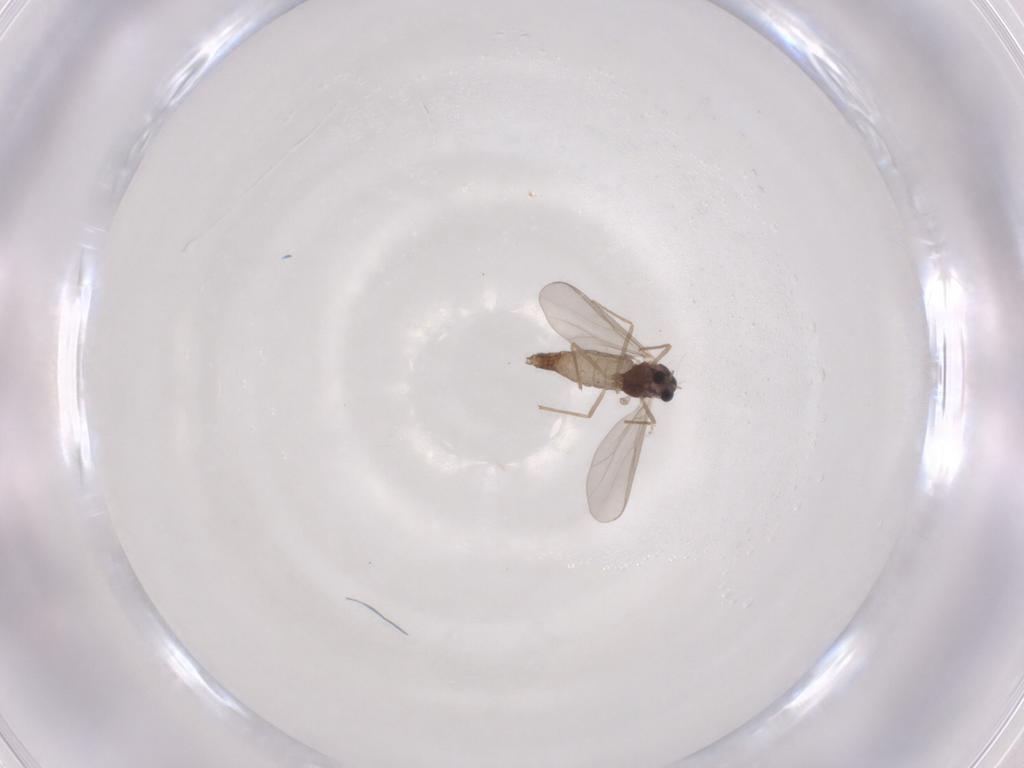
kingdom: Animalia
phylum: Arthropoda
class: Insecta
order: Diptera
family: Chironomidae
